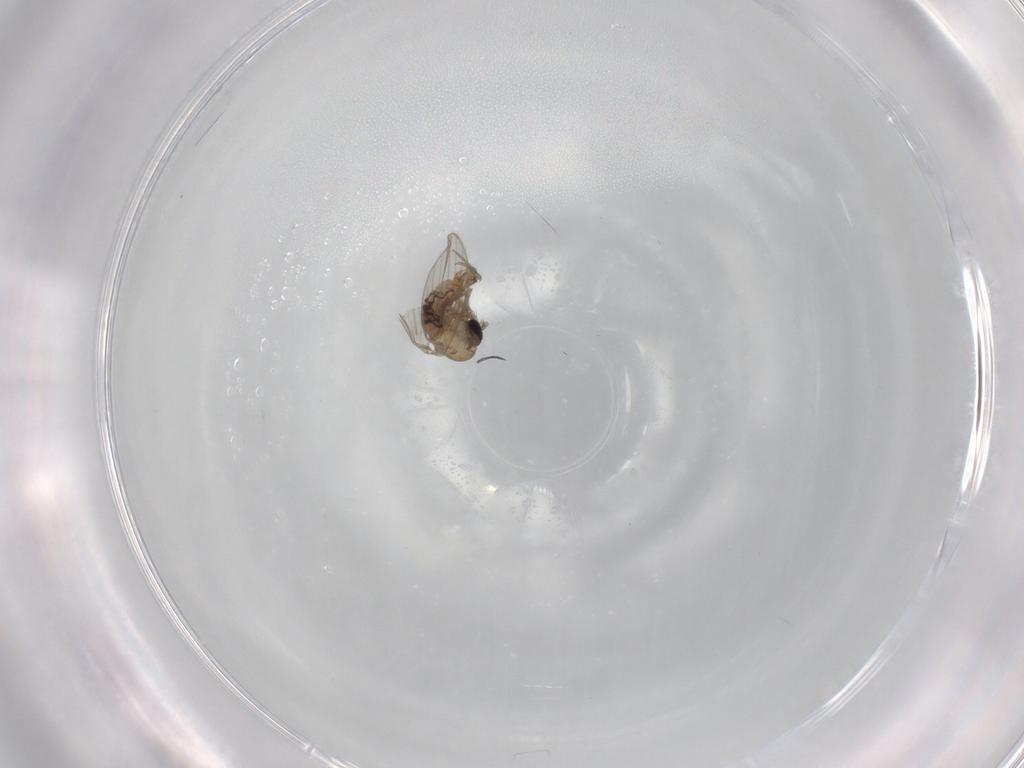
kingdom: Animalia
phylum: Arthropoda
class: Insecta
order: Diptera
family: Psychodidae
